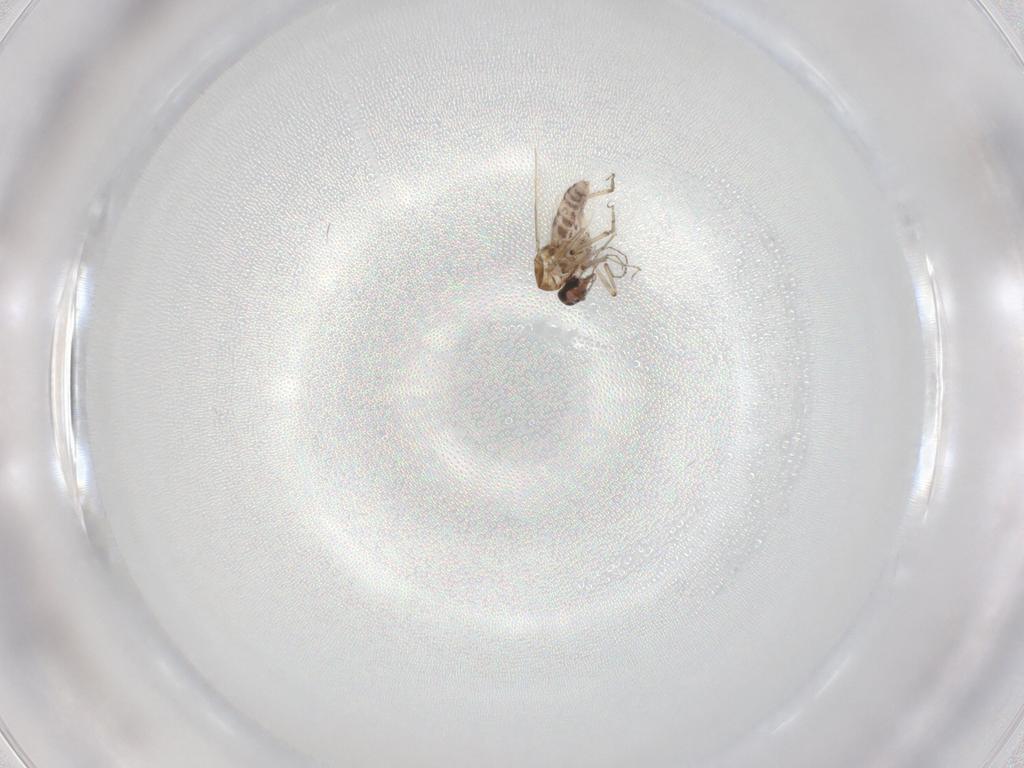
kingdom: Animalia
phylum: Arthropoda
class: Insecta
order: Diptera
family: Ceratopogonidae
